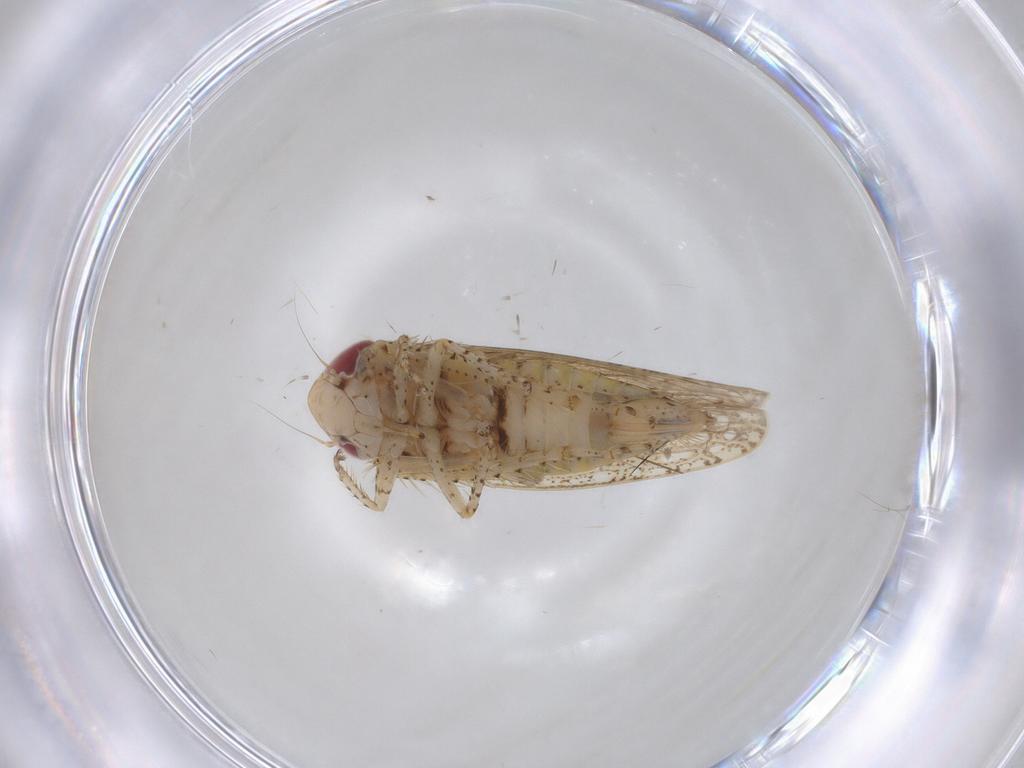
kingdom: Animalia
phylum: Arthropoda
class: Insecta
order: Hemiptera
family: Cicadellidae
